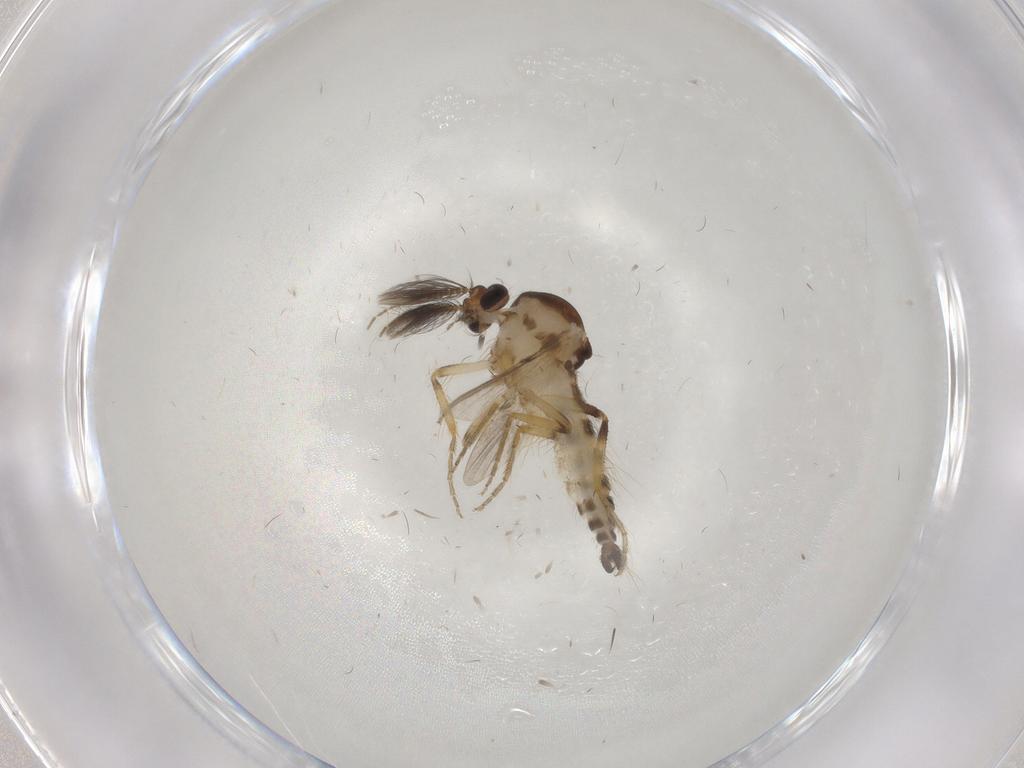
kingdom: Animalia
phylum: Arthropoda
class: Insecta
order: Diptera
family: Ceratopogonidae
